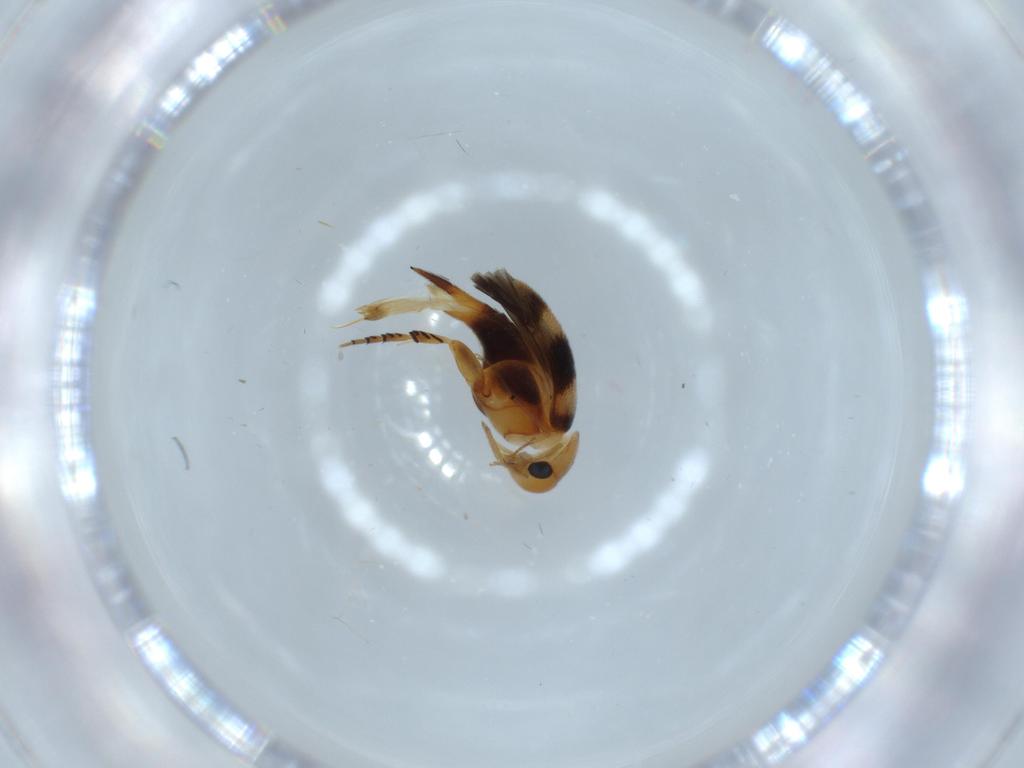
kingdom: Animalia
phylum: Arthropoda
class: Insecta
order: Coleoptera
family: Mordellidae
